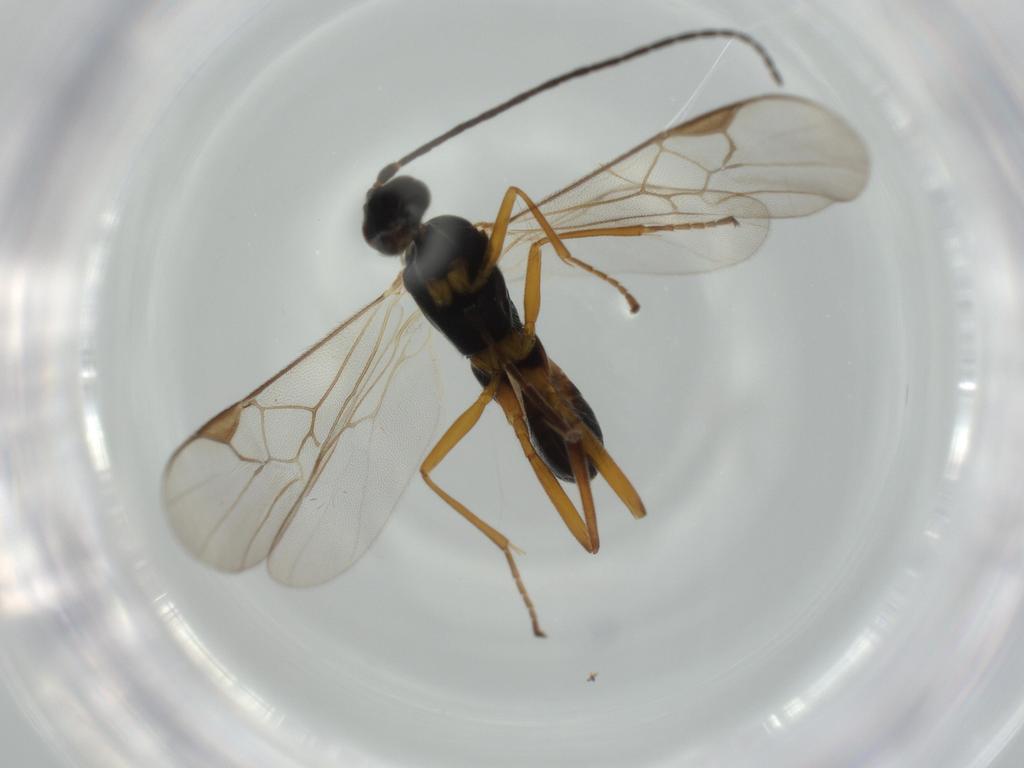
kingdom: Animalia
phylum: Arthropoda
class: Insecta
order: Hymenoptera
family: Braconidae
